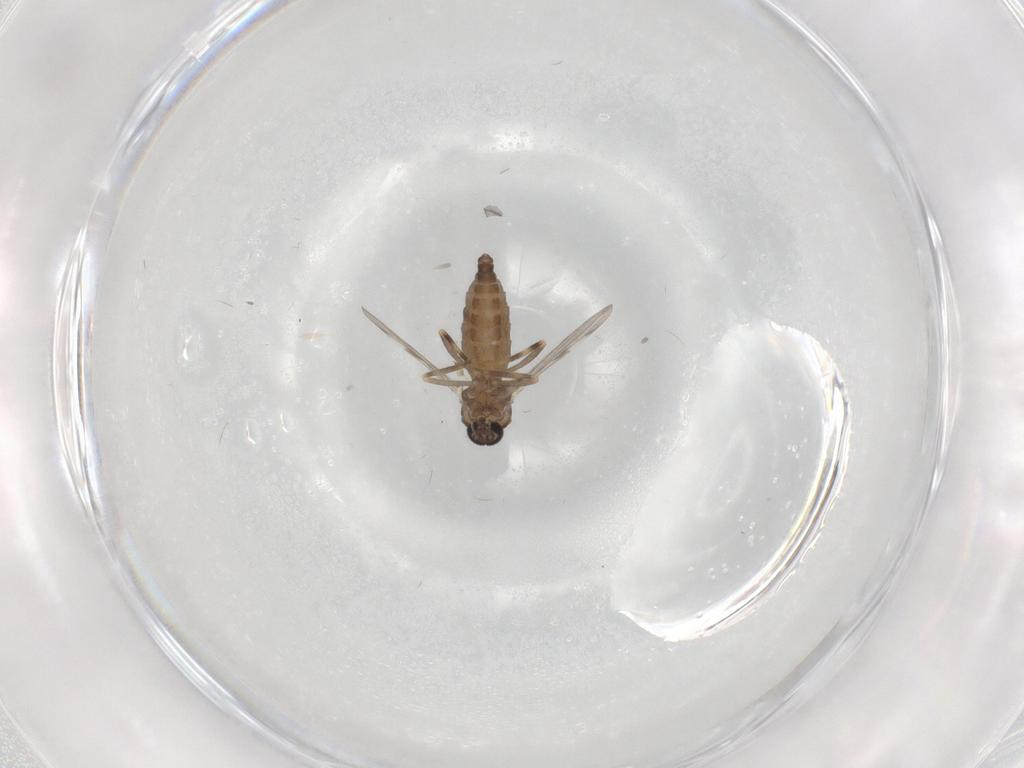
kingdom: Animalia
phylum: Arthropoda
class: Insecta
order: Diptera
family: Ceratopogonidae
